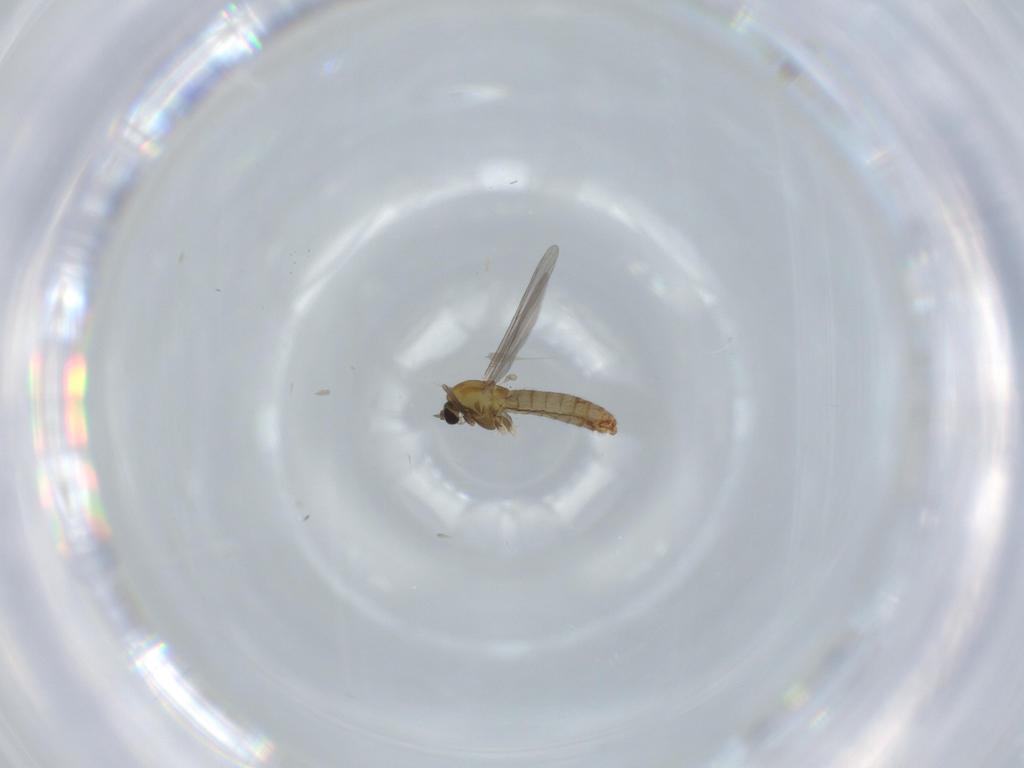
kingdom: Animalia
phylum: Arthropoda
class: Insecta
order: Diptera
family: Chironomidae
